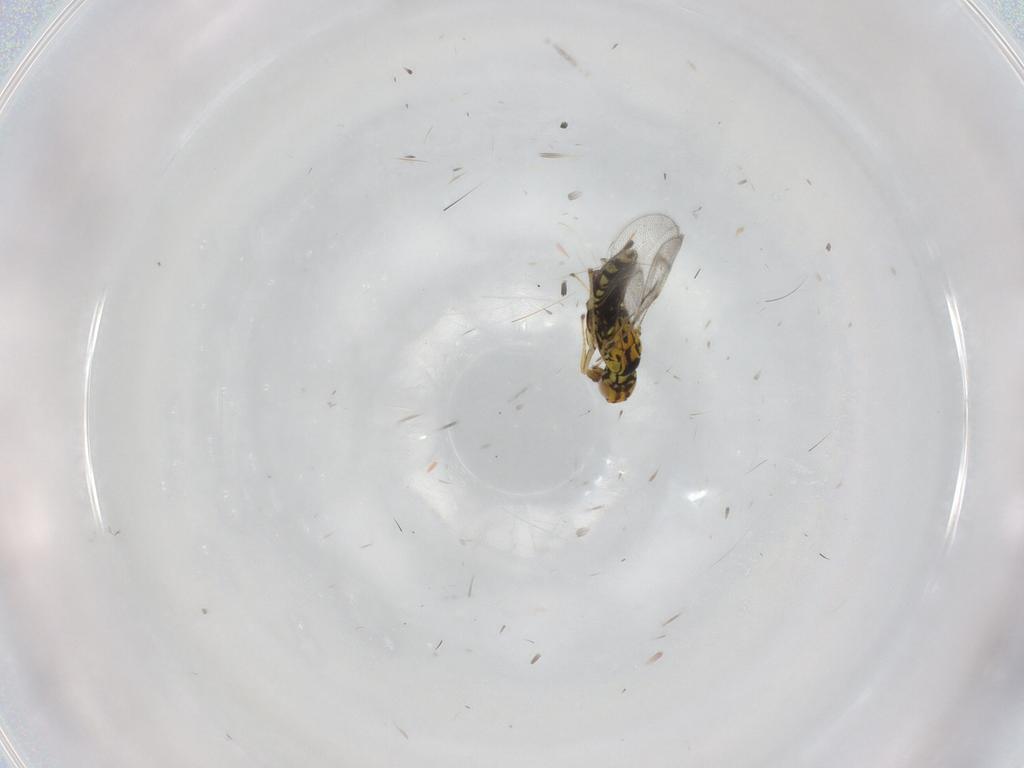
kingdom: Animalia
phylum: Arthropoda
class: Insecta
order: Hymenoptera
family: Eulophidae
